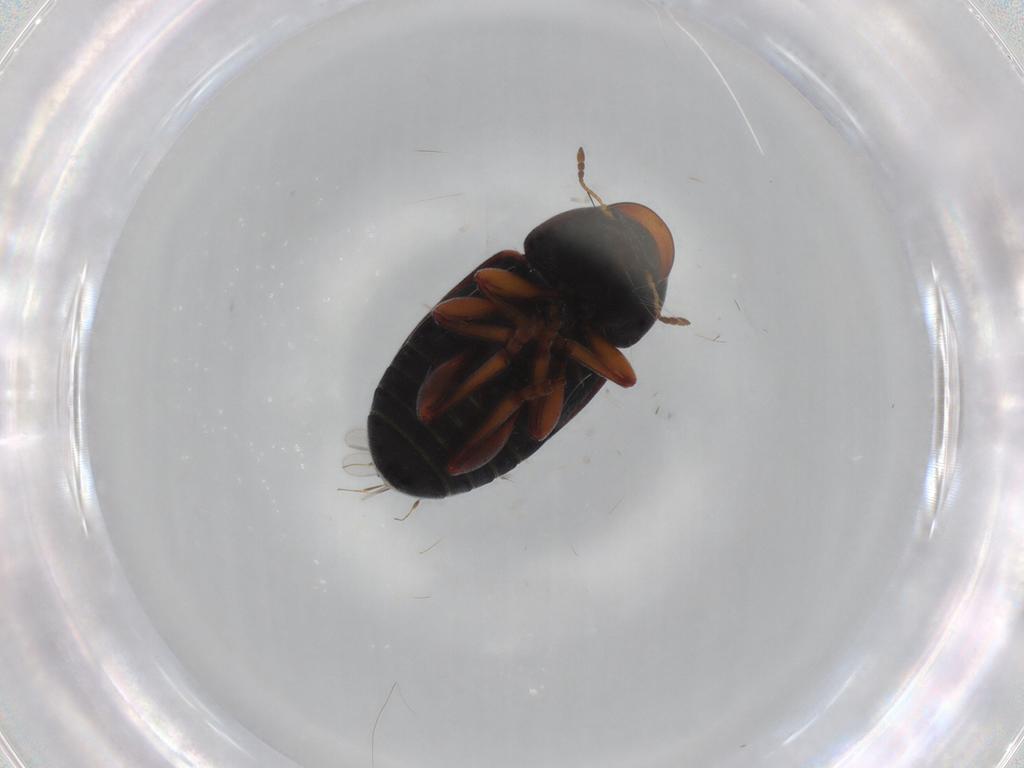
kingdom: Animalia
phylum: Arthropoda
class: Insecta
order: Coleoptera
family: Anthribidae
